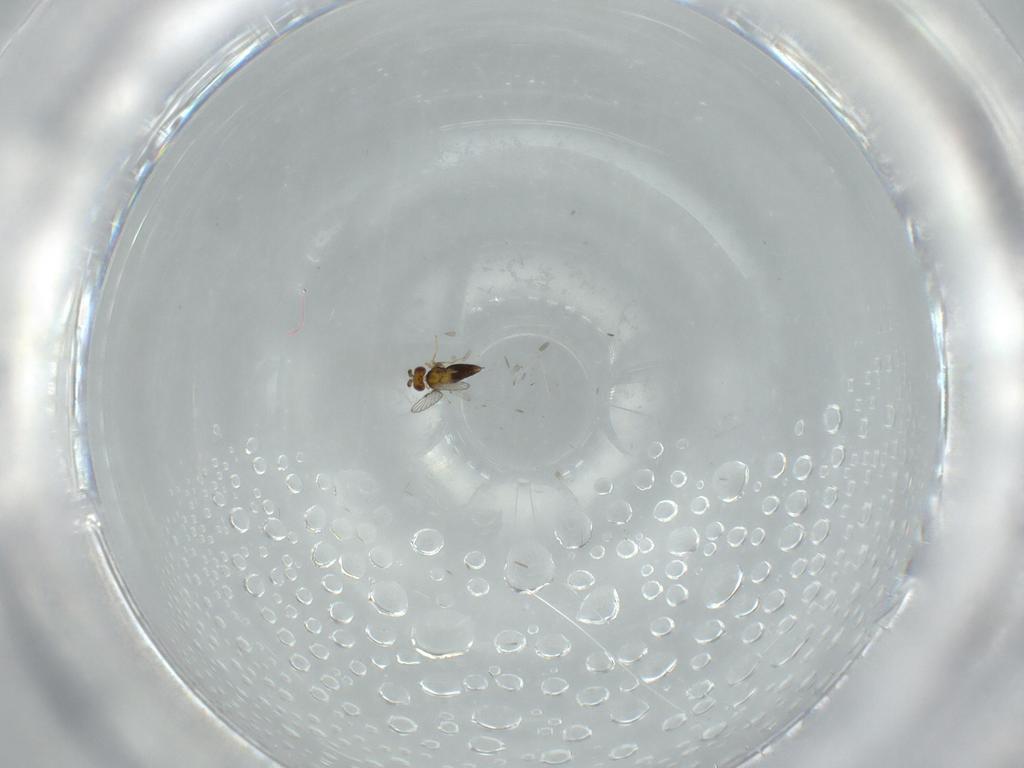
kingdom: Animalia
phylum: Arthropoda
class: Insecta
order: Diptera
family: Cecidomyiidae
